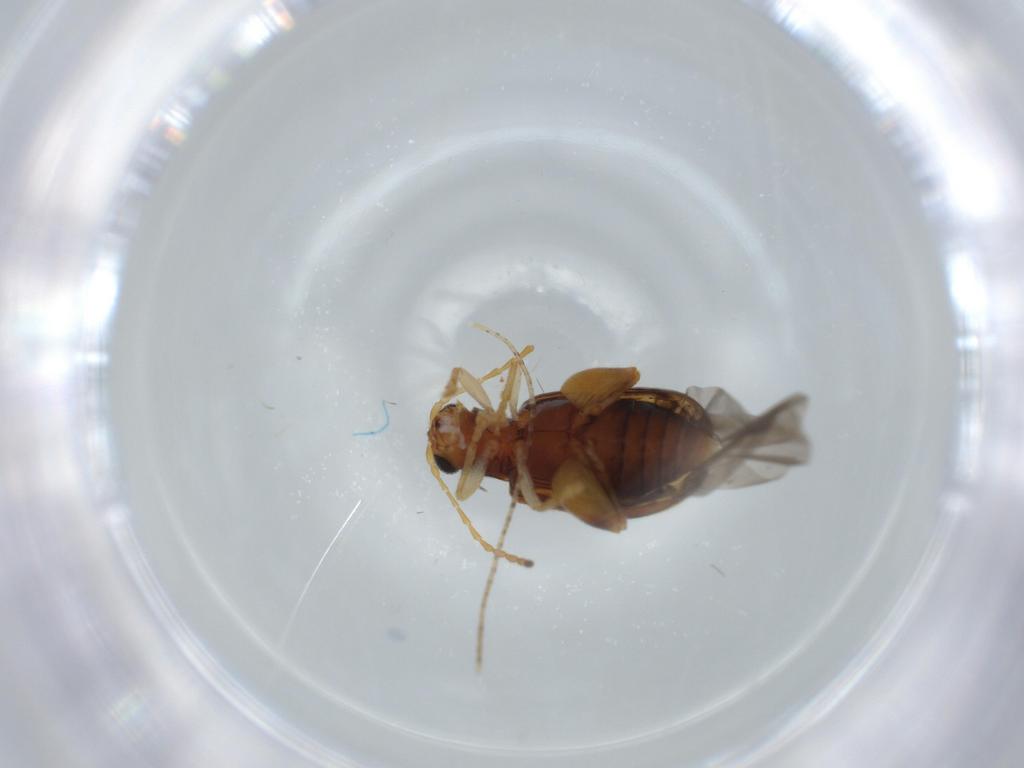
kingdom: Animalia
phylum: Arthropoda
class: Insecta
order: Coleoptera
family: Chrysomelidae
